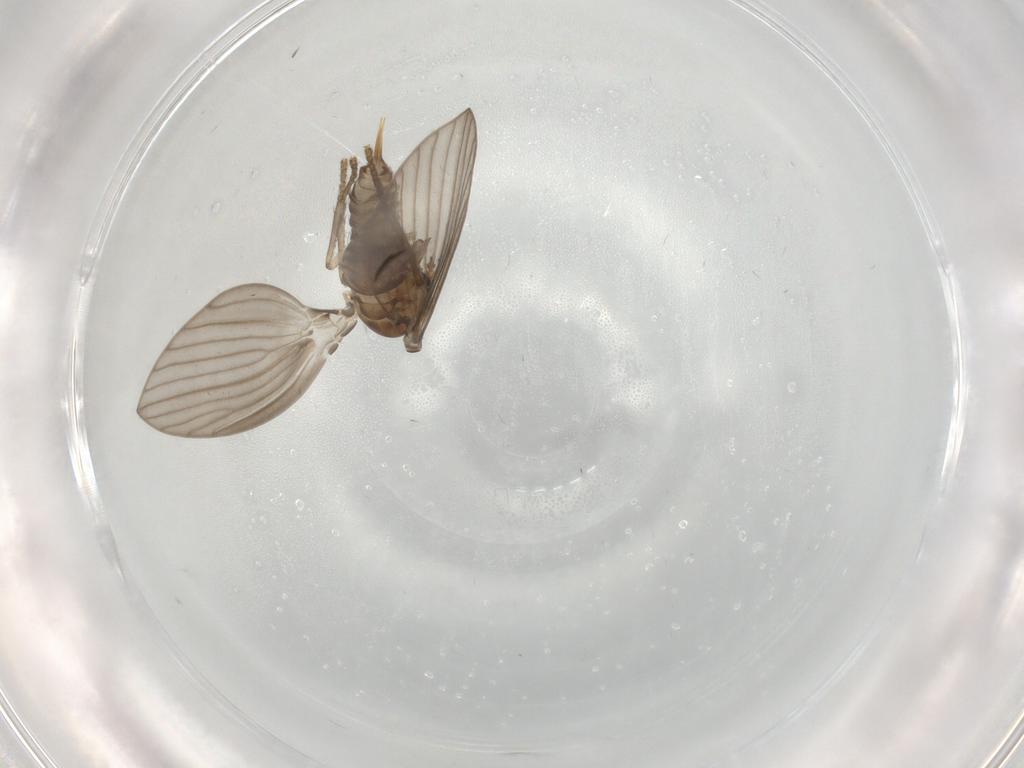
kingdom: Animalia
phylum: Arthropoda
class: Insecta
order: Diptera
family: Psychodidae
